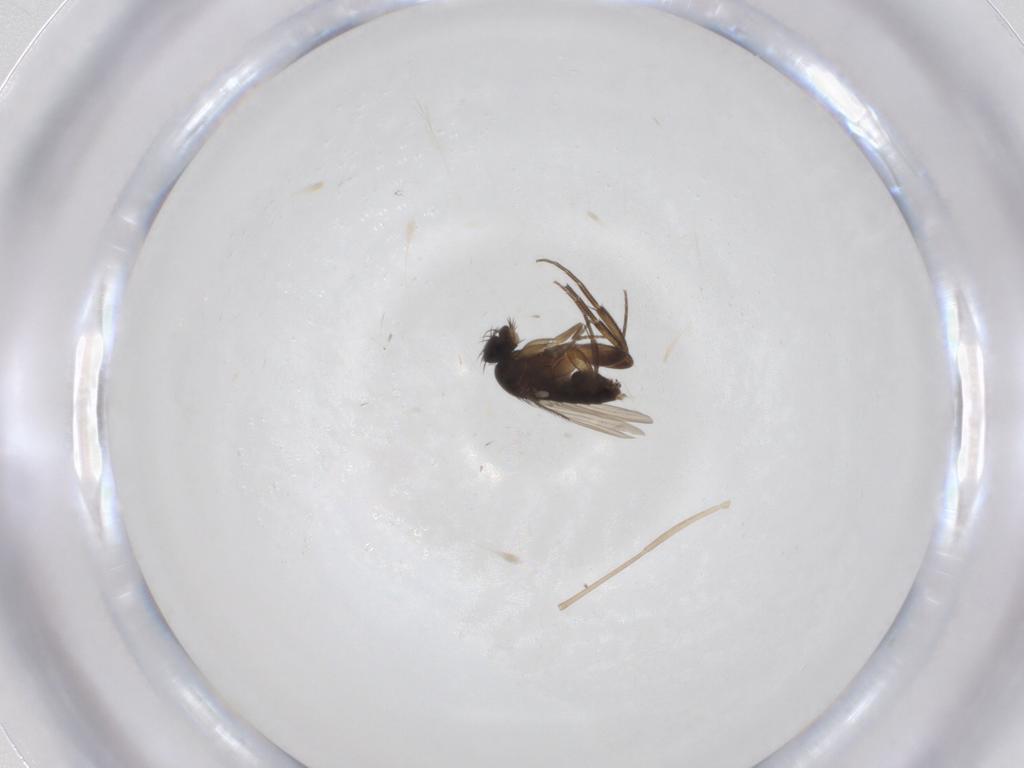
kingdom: Animalia
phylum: Arthropoda
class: Insecta
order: Diptera
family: Phoridae
